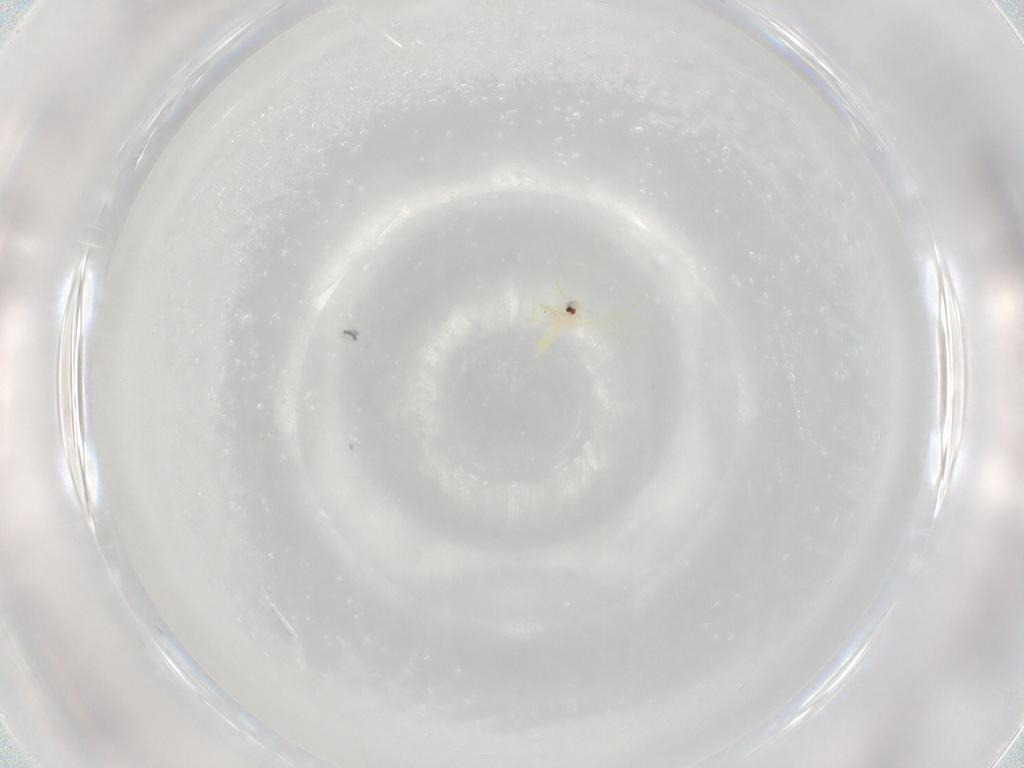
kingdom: Animalia
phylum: Arthropoda
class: Insecta
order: Hemiptera
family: Aleyrodidae
